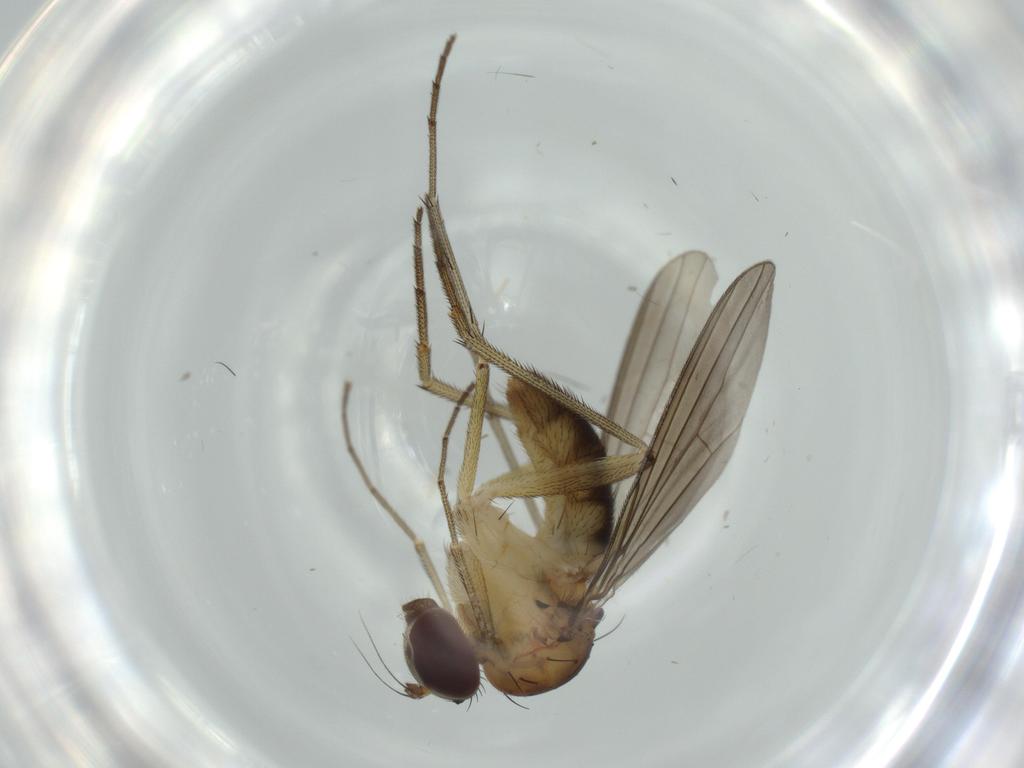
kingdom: Animalia
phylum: Arthropoda
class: Insecta
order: Diptera
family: Dolichopodidae
